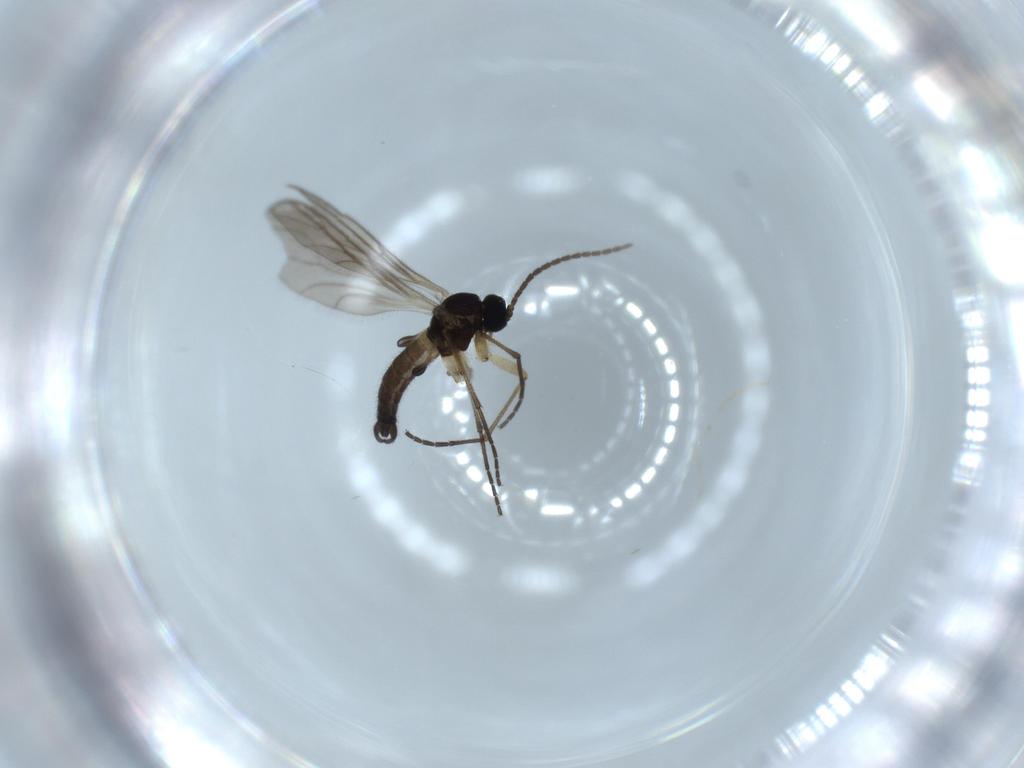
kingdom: Animalia
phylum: Arthropoda
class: Insecta
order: Diptera
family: Sciaridae
